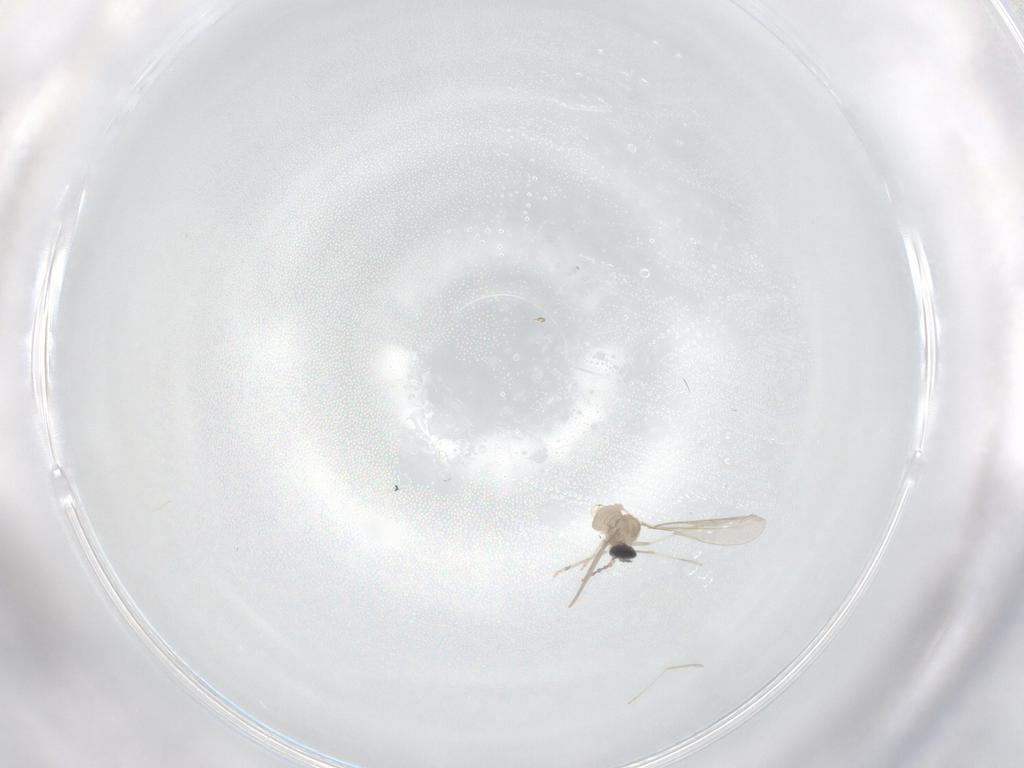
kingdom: Animalia
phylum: Arthropoda
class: Insecta
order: Diptera
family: Cecidomyiidae
